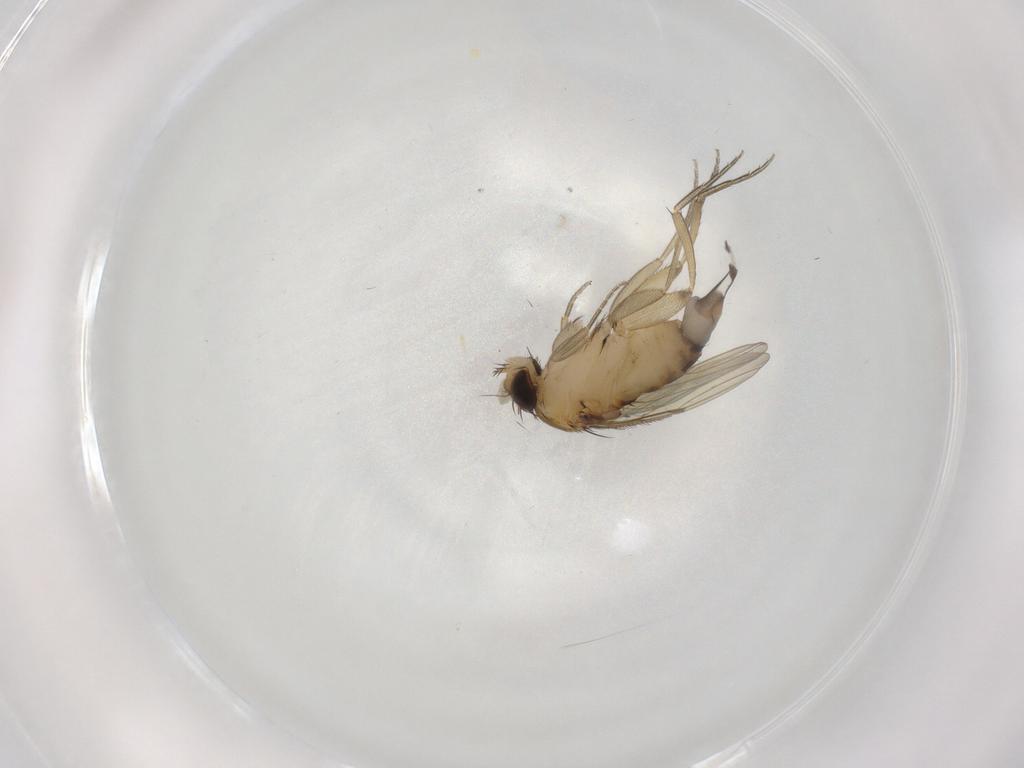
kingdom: Animalia
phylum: Arthropoda
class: Insecta
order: Diptera
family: Phoridae
